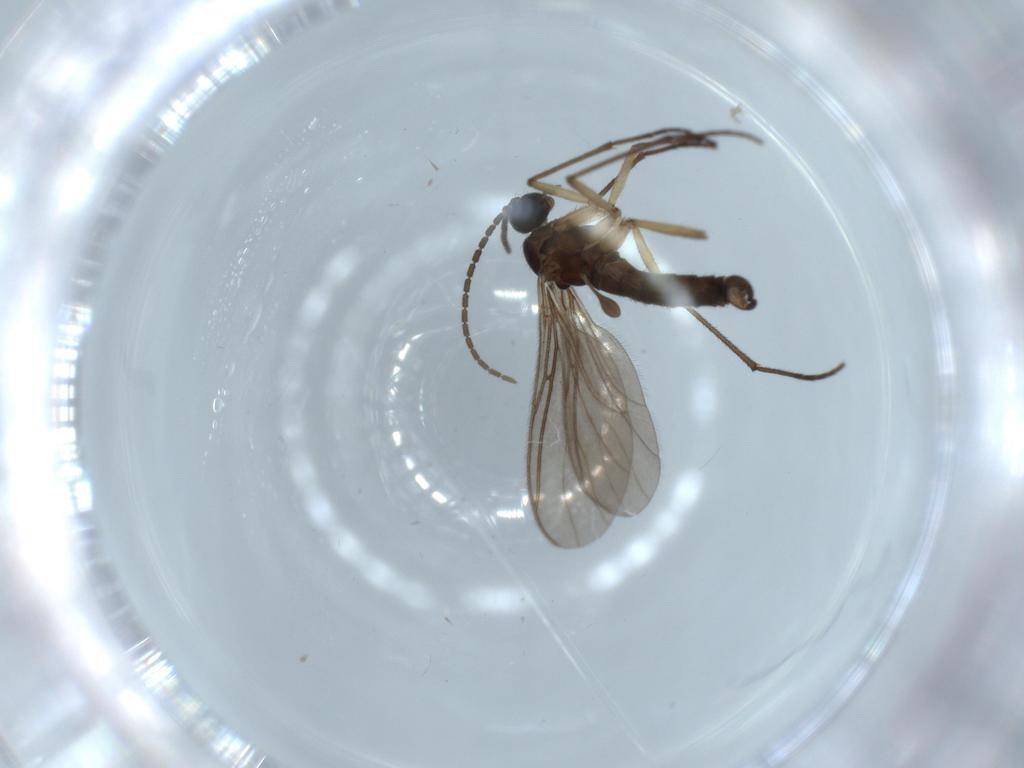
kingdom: Animalia
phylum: Arthropoda
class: Insecta
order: Diptera
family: Sciaridae
